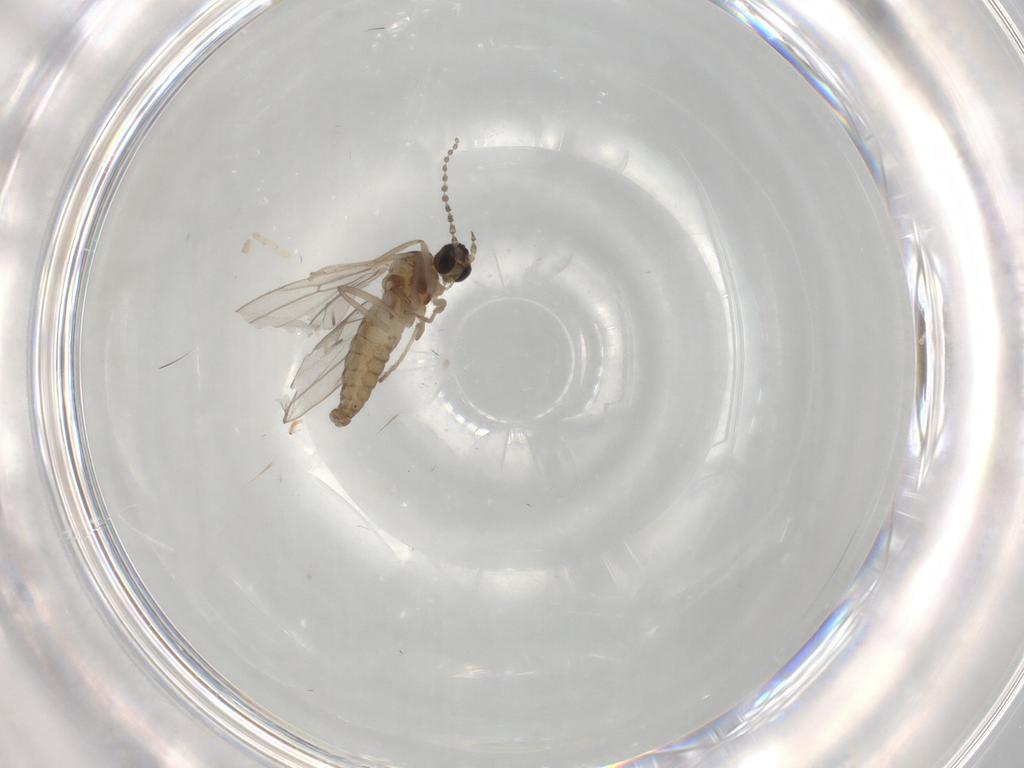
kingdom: Animalia
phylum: Arthropoda
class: Insecta
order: Diptera
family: Cecidomyiidae
